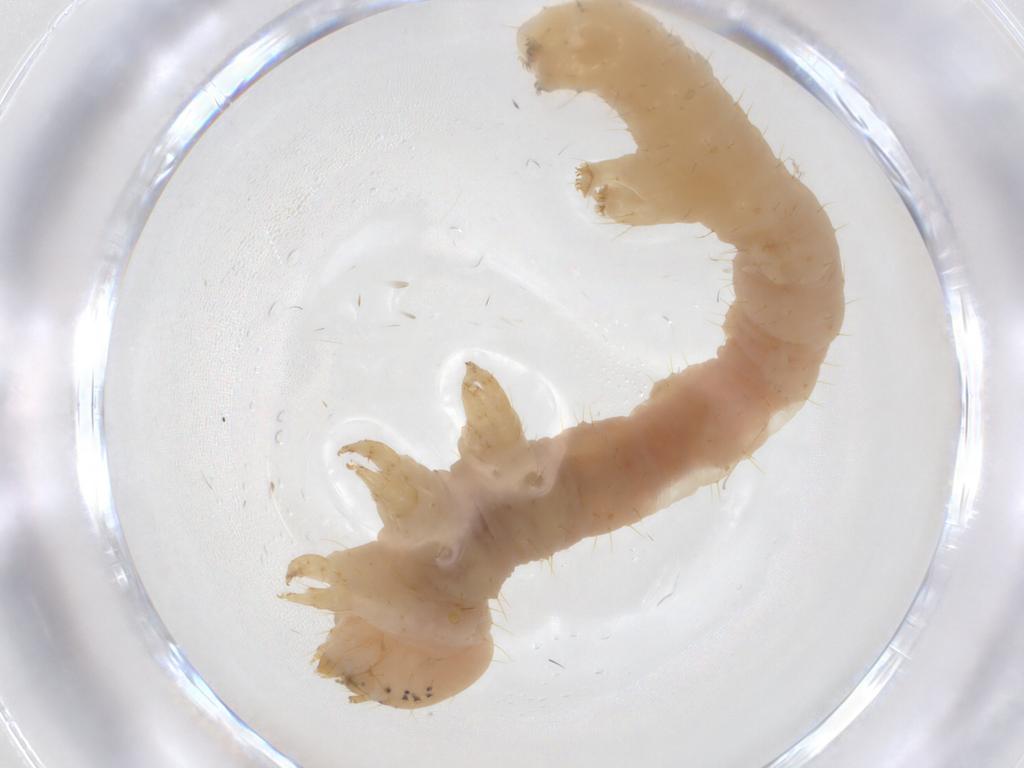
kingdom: Animalia
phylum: Arthropoda
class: Insecta
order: Lepidoptera
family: Geometridae
